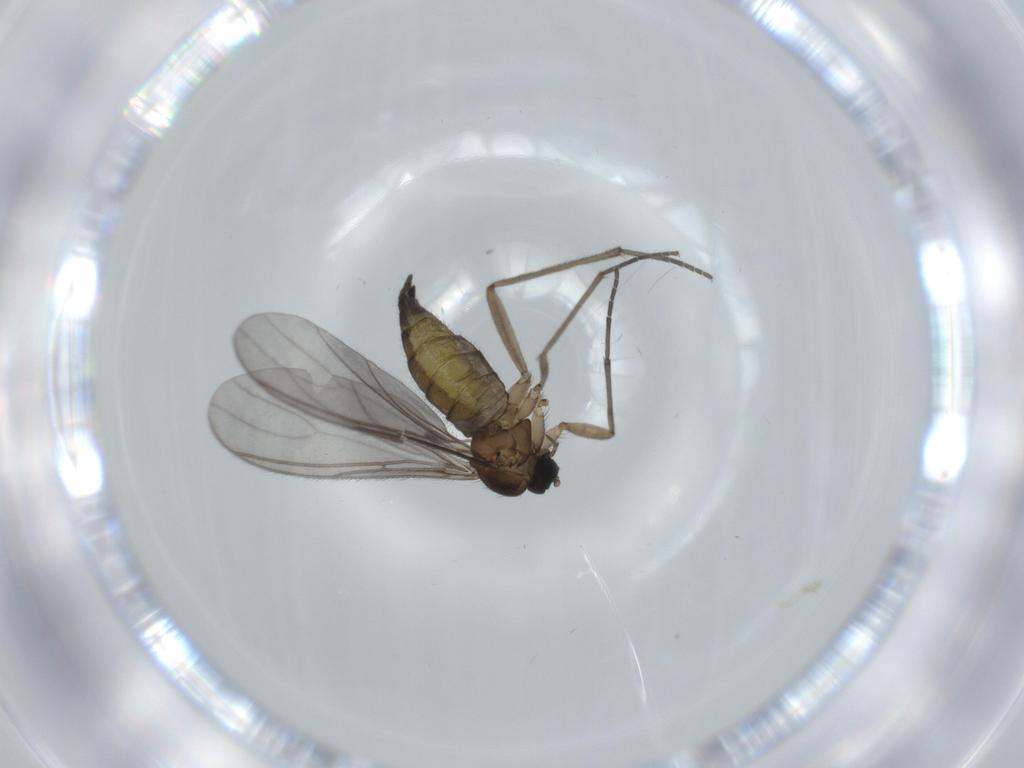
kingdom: Animalia
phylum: Arthropoda
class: Insecta
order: Diptera
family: Sciaridae
